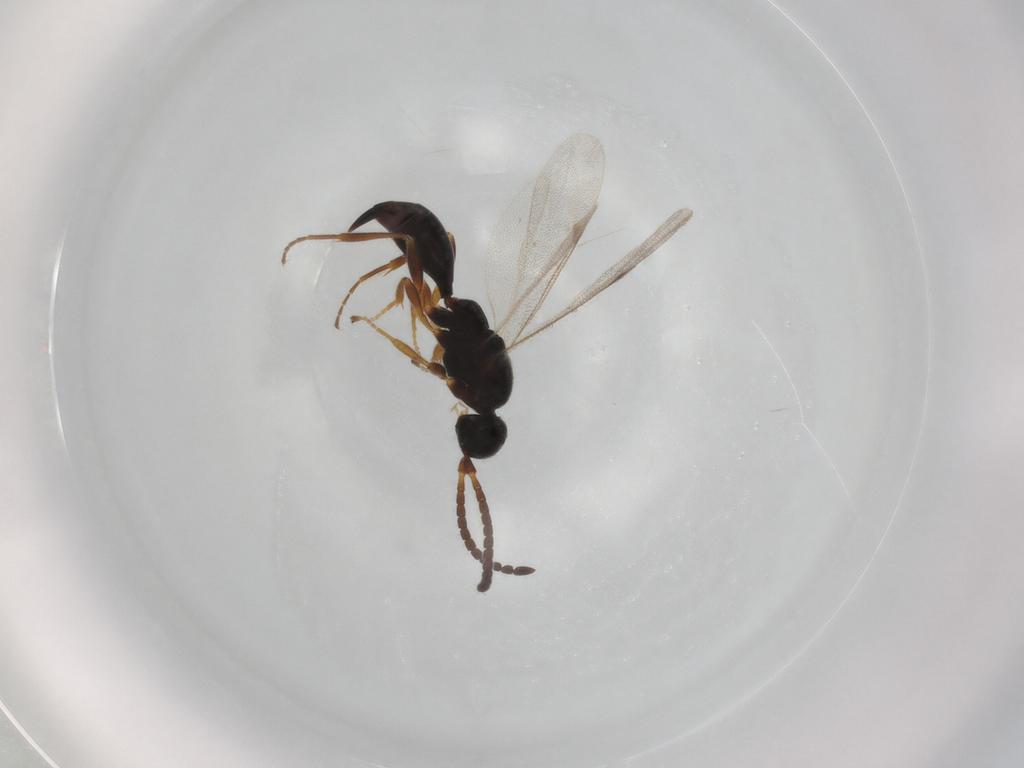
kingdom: Animalia
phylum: Arthropoda
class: Insecta
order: Hymenoptera
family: Proctotrupidae
